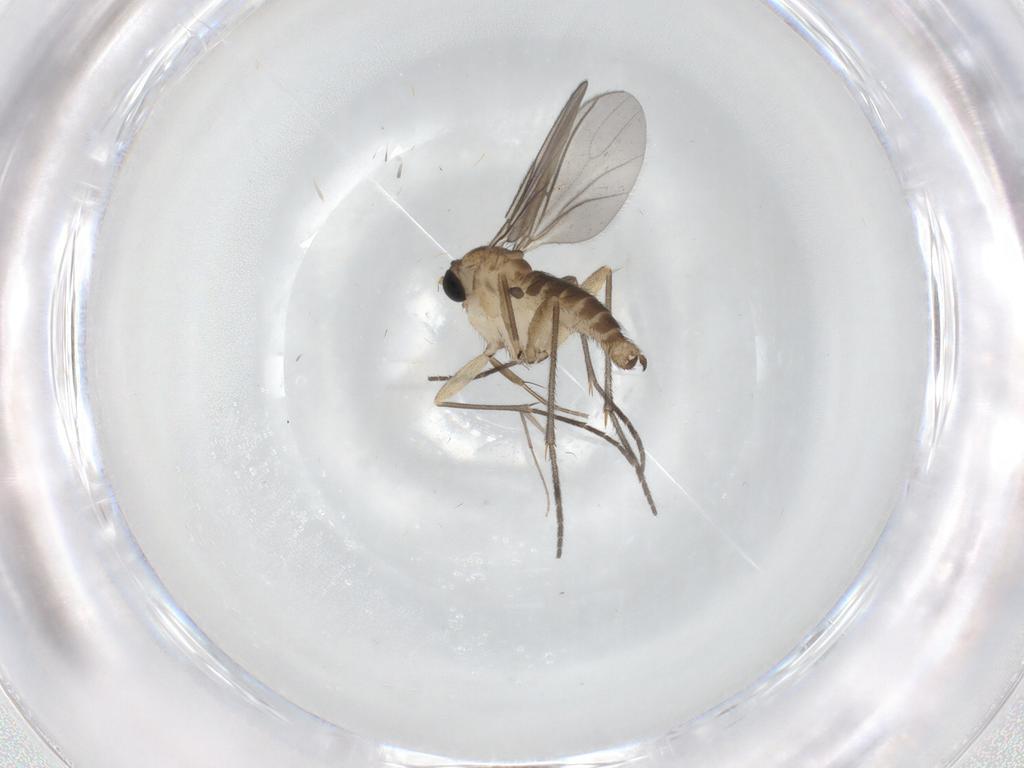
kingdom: Animalia
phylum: Arthropoda
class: Insecta
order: Diptera
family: Sciaridae
